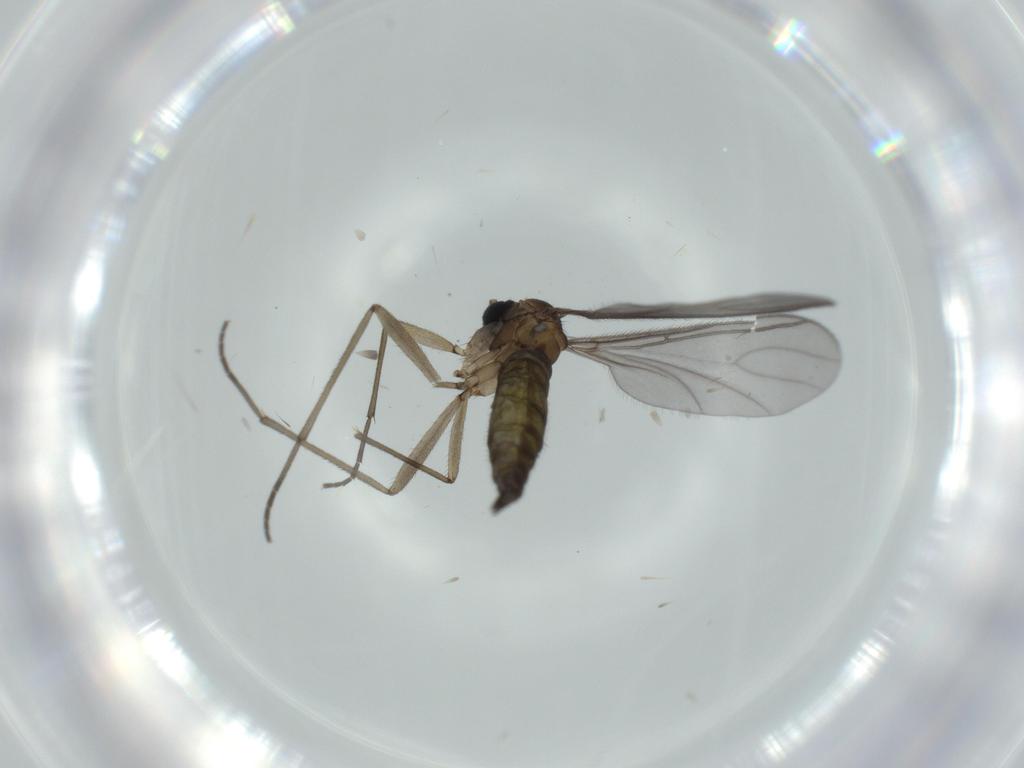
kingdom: Animalia
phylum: Arthropoda
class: Insecta
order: Diptera
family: Sciaridae
